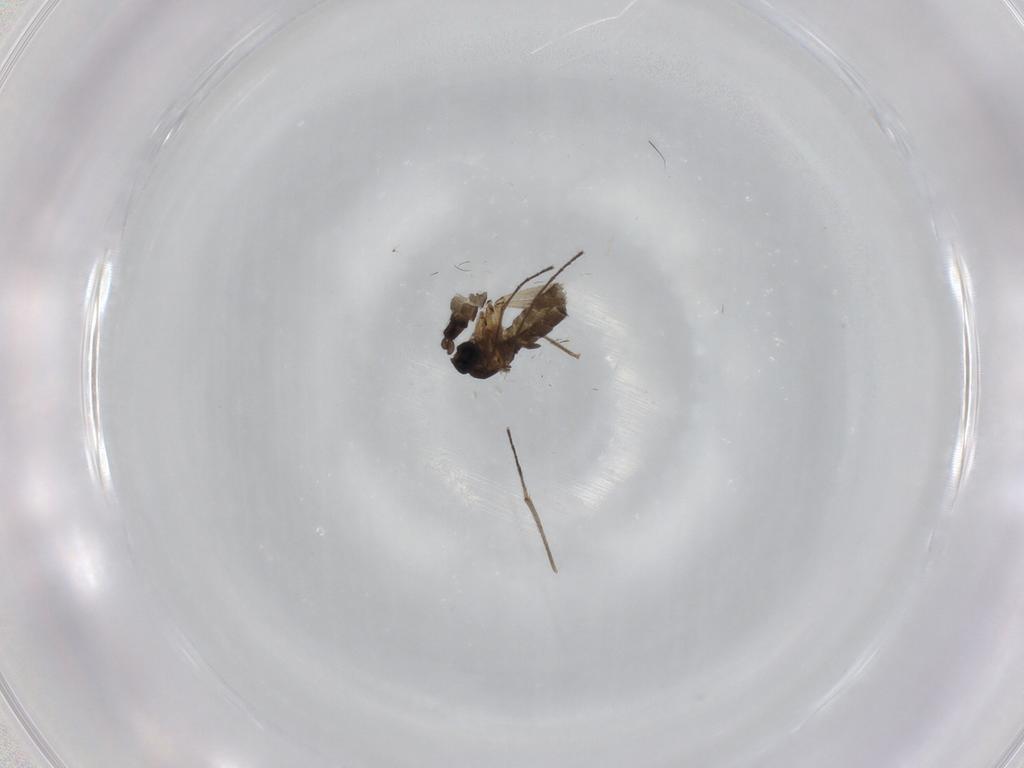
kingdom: Animalia
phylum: Arthropoda
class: Insecta
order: Diptera
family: Sciaridae
